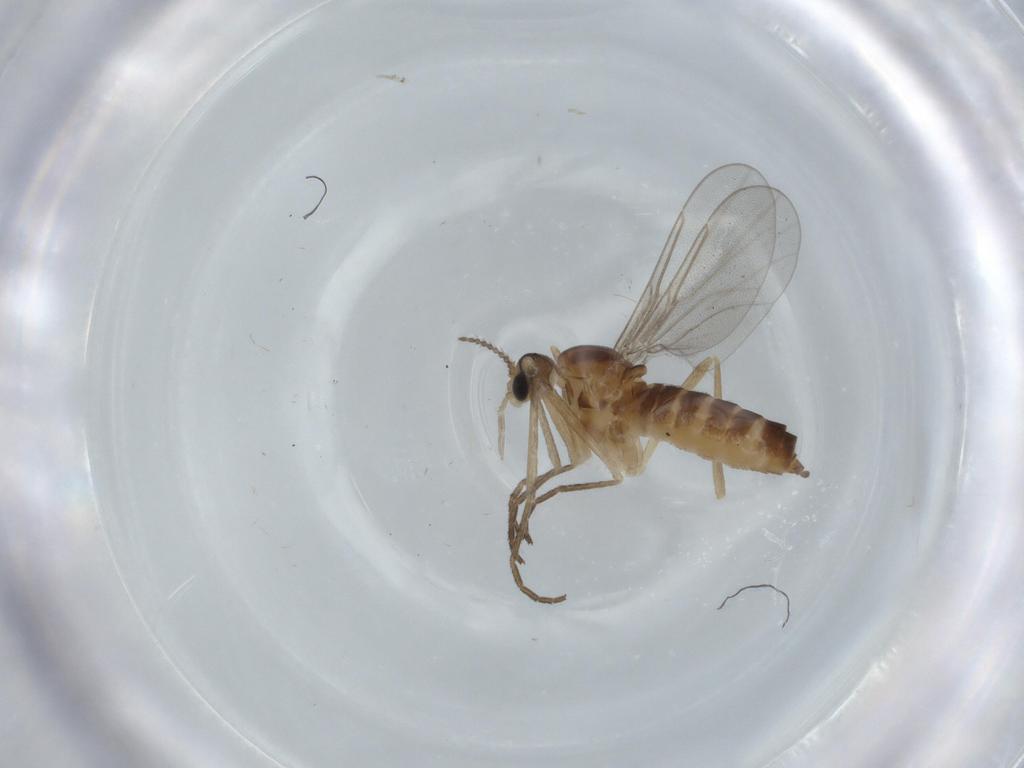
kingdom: Animalia
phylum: Arthropoda
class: Insecta
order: Diptera
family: Cecidomyiidae
